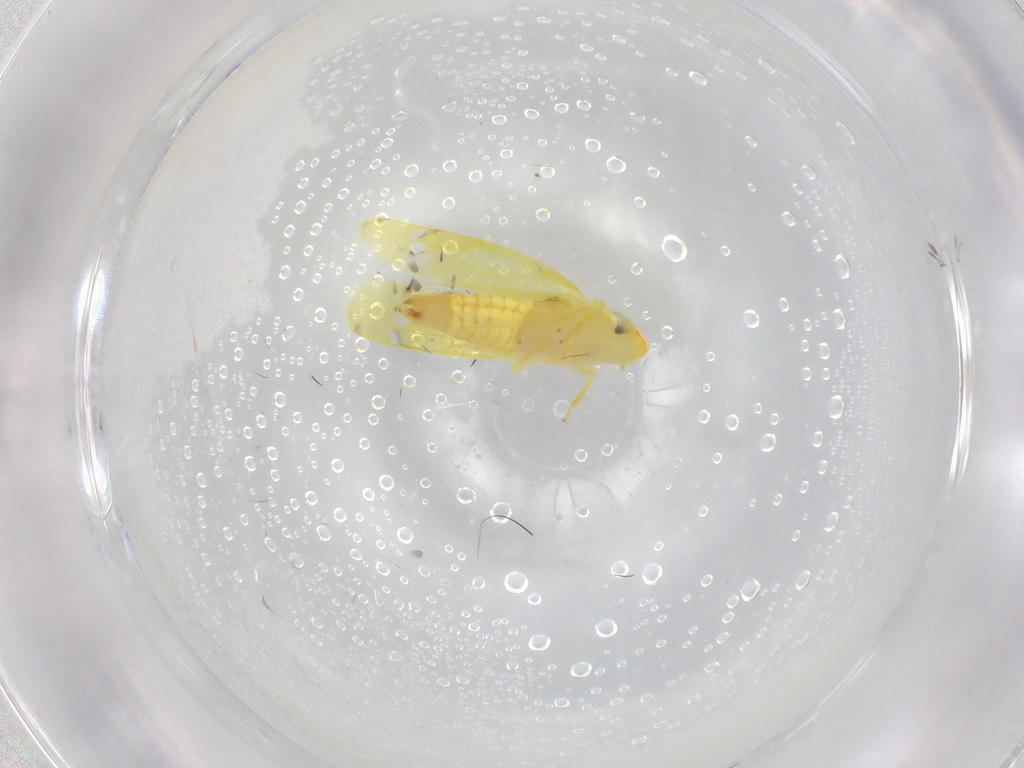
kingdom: Animalia
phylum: Arthropoda
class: Insecta
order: Hemiptera
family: Cicadellidae
